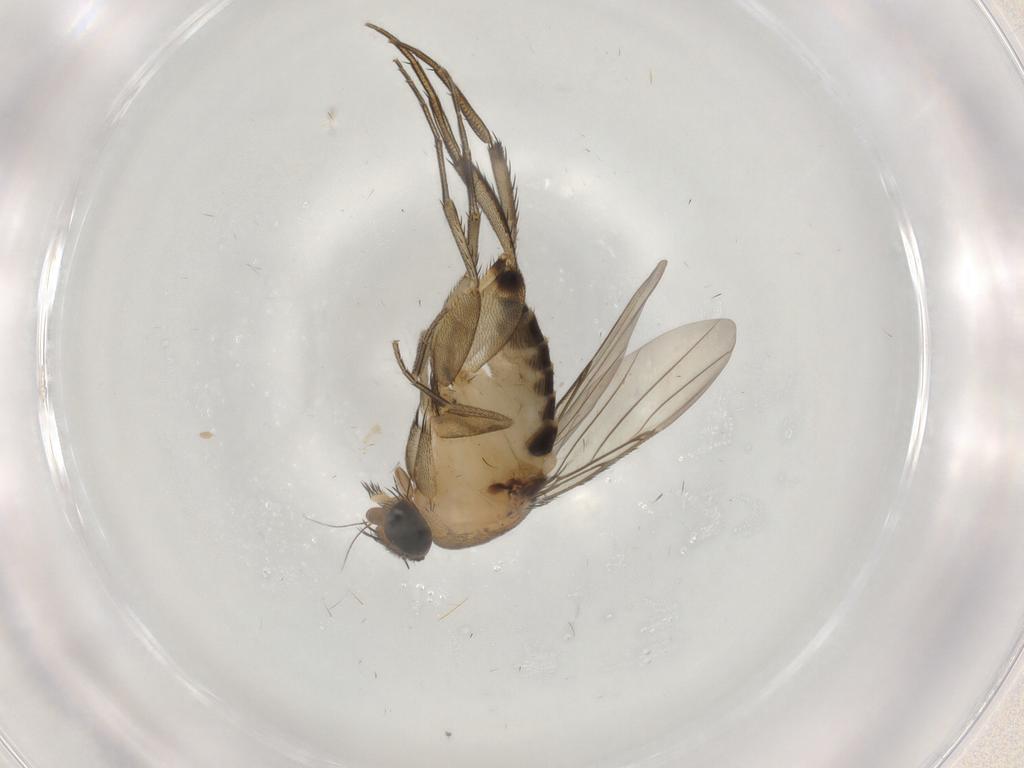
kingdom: Animalia
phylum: Arthropoda
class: Insecta
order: Diptera
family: Phoridae
